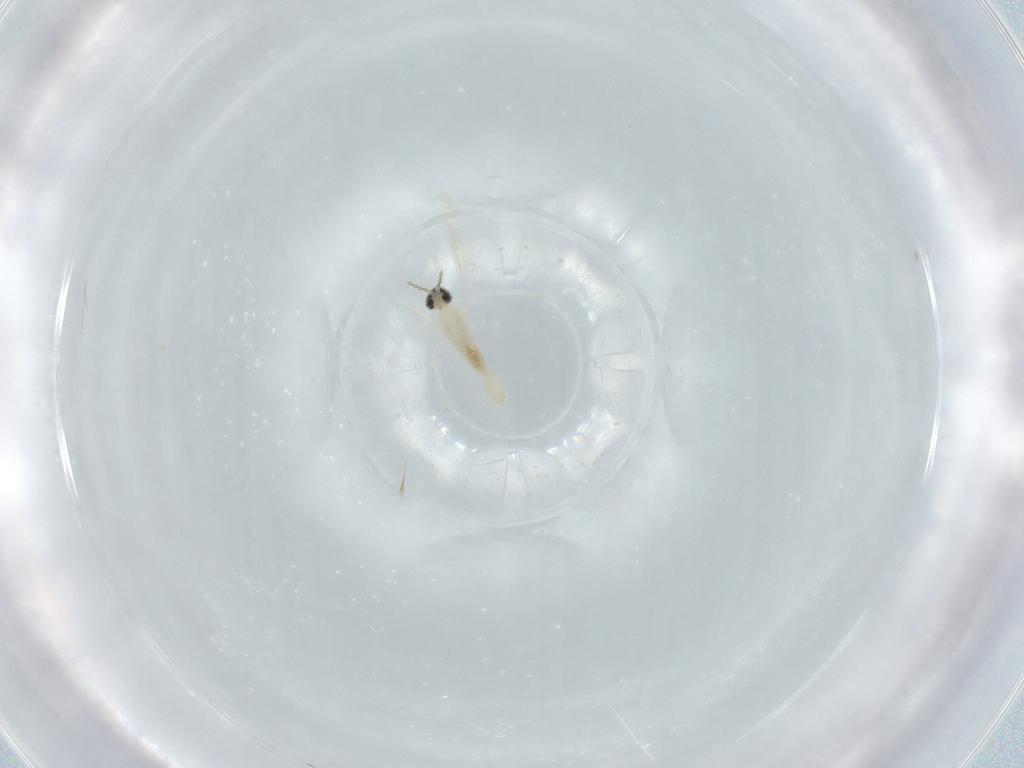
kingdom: Animalia
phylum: Arthropoda
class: Insecta
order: Diptera
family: Cecidomyiidae
